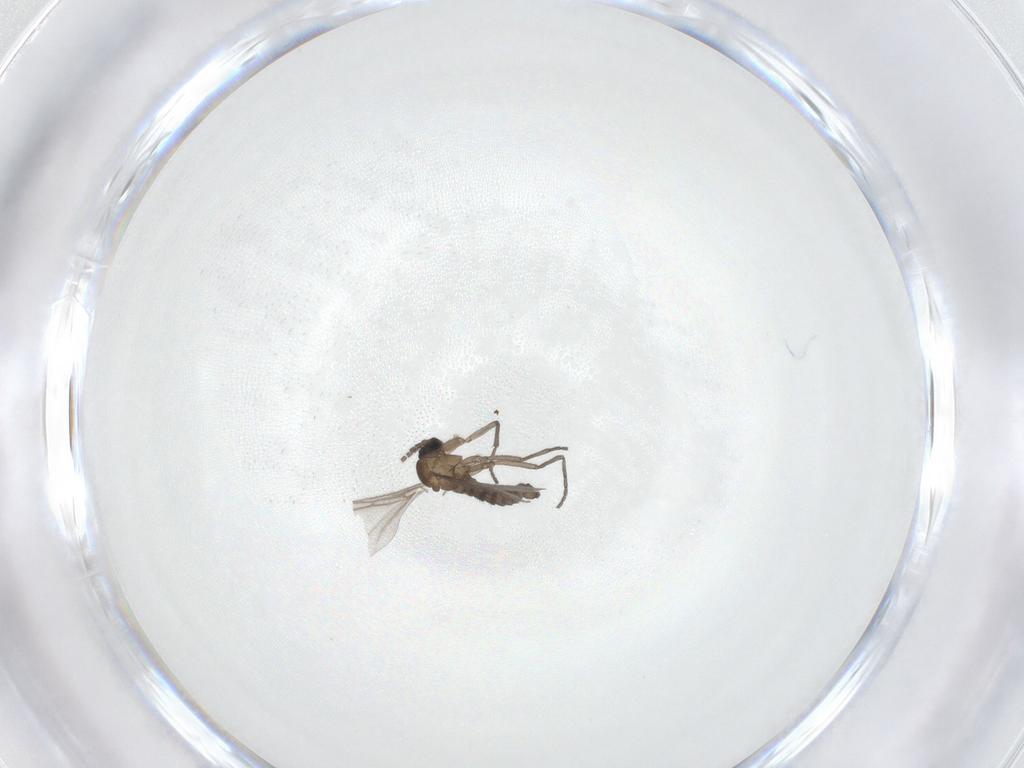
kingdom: Animalia
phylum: Arthropoda
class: Insecta
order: Diptera
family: Sciaridae
